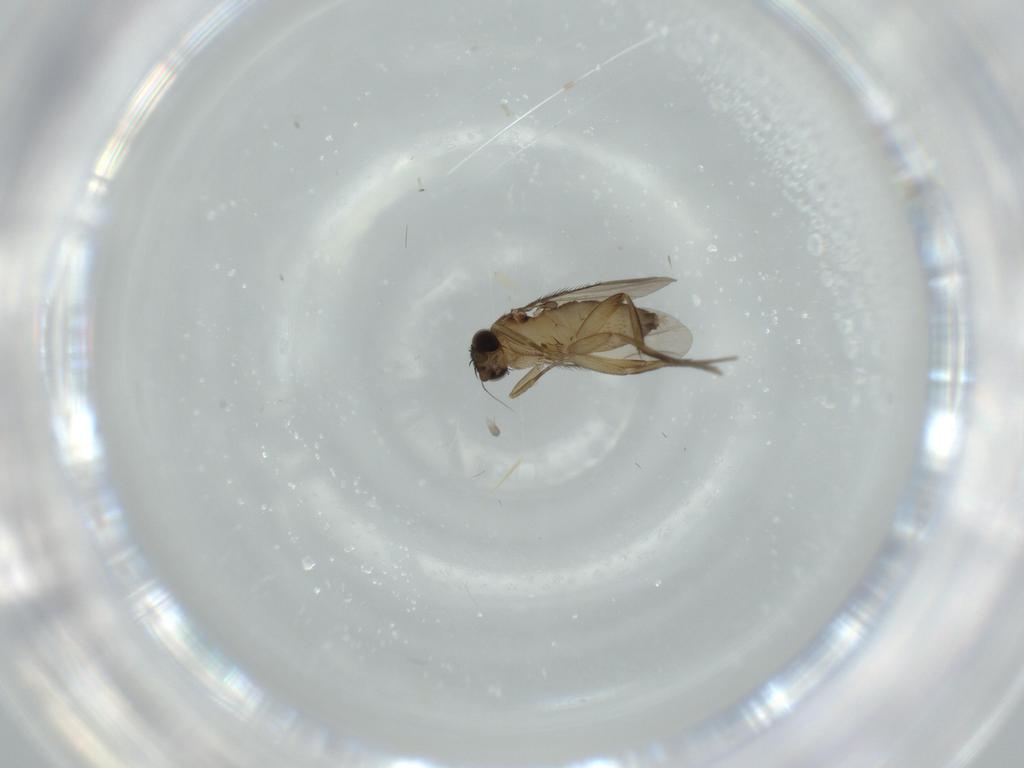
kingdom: Animalia
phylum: Arthropoda
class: Insecta
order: Diptera
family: Phoridae
